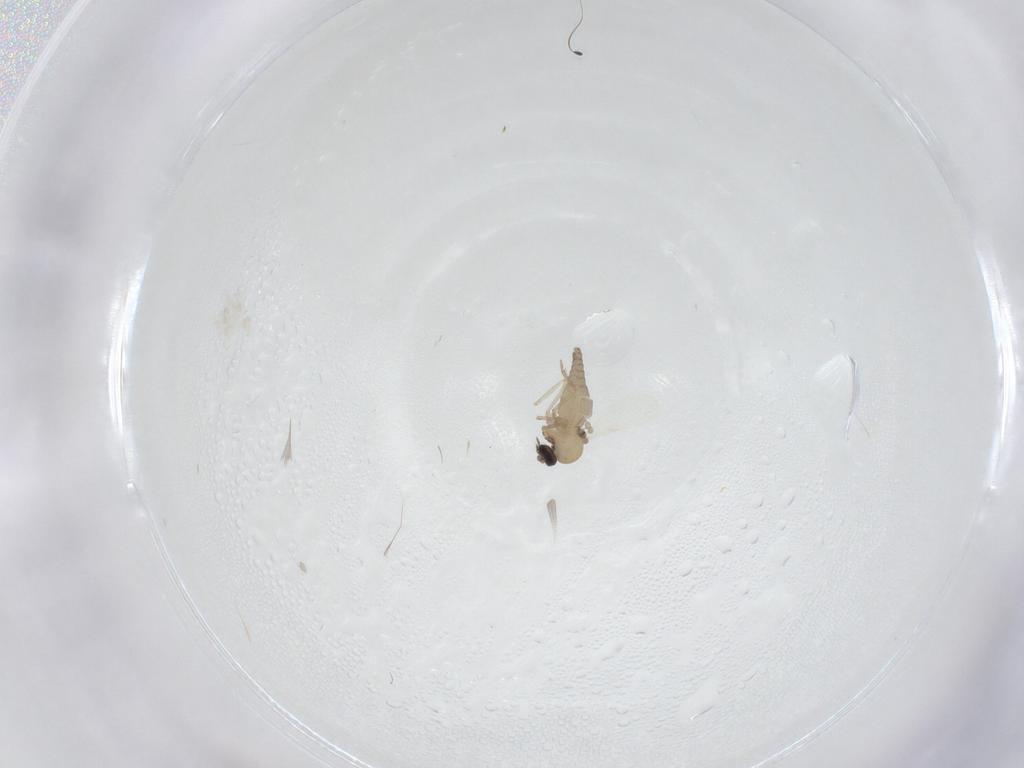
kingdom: Animalia
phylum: Arthropoda
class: Insecta
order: Diptera
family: Ceratopogonidae
